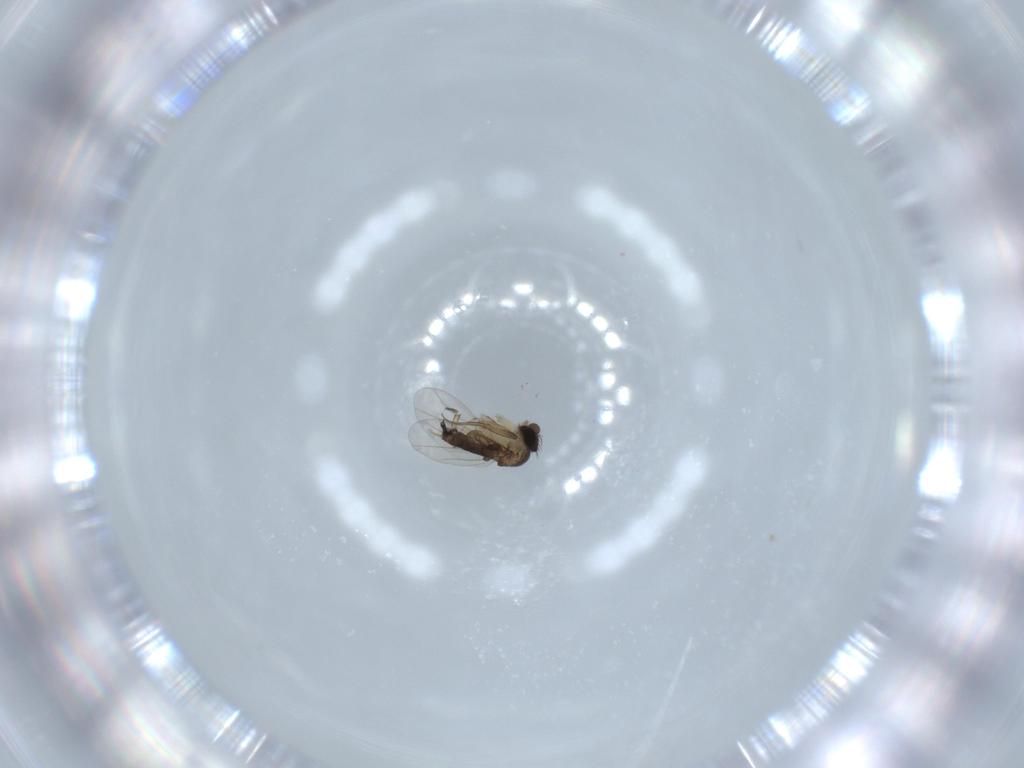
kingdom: Animalia
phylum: Arthropoda
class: Insecta
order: Diptera
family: Phoridae
